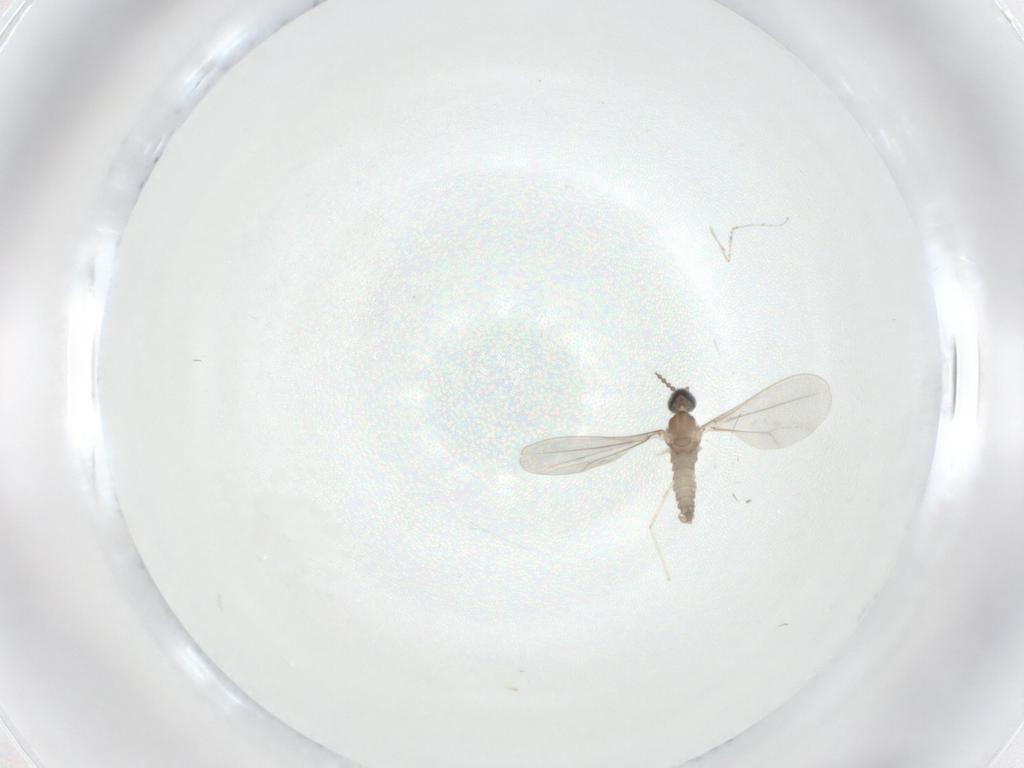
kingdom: Animalia
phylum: Arthropoda
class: Insecta
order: Diptera
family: Cecidomyiidae
